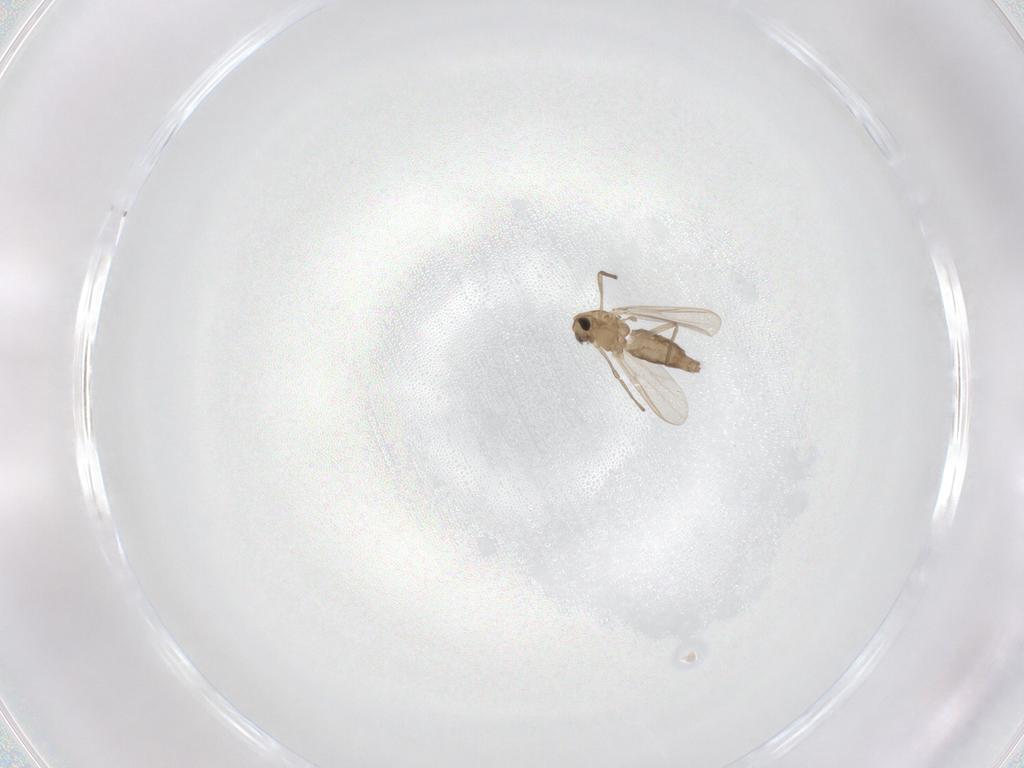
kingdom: Animalia
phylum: Arthropoda
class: Insecta
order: Diptera
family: Chironomidae
